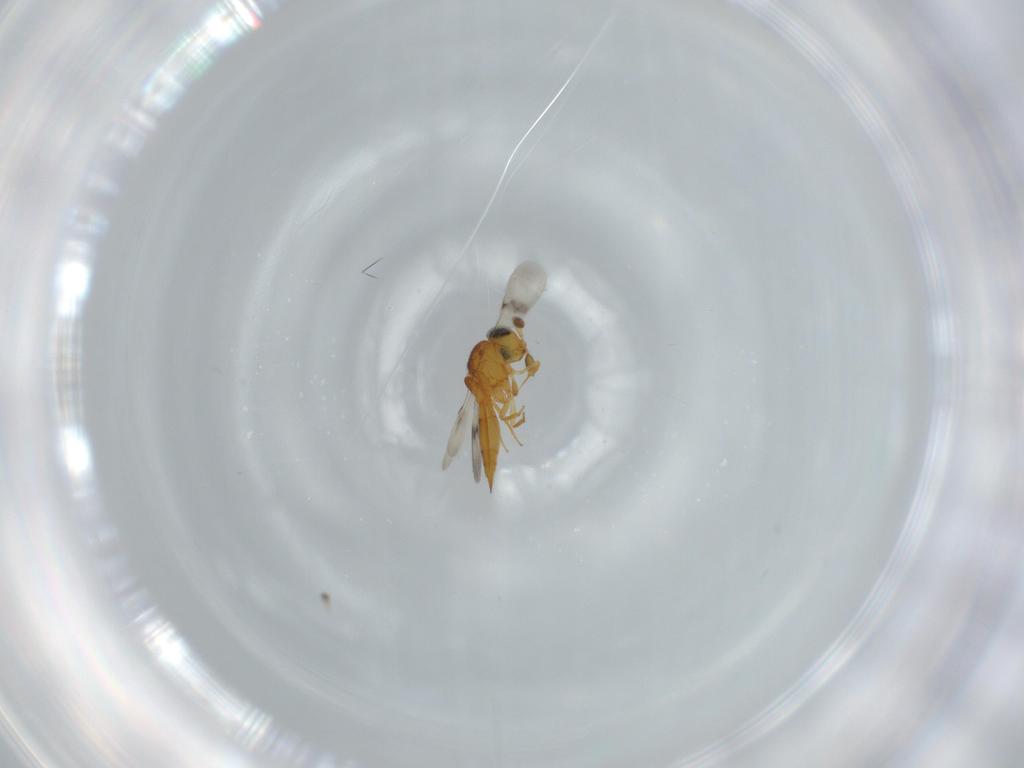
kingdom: Animalia
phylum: Arthropoda
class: Insecta
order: Hymenoptera
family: Scelionidae
